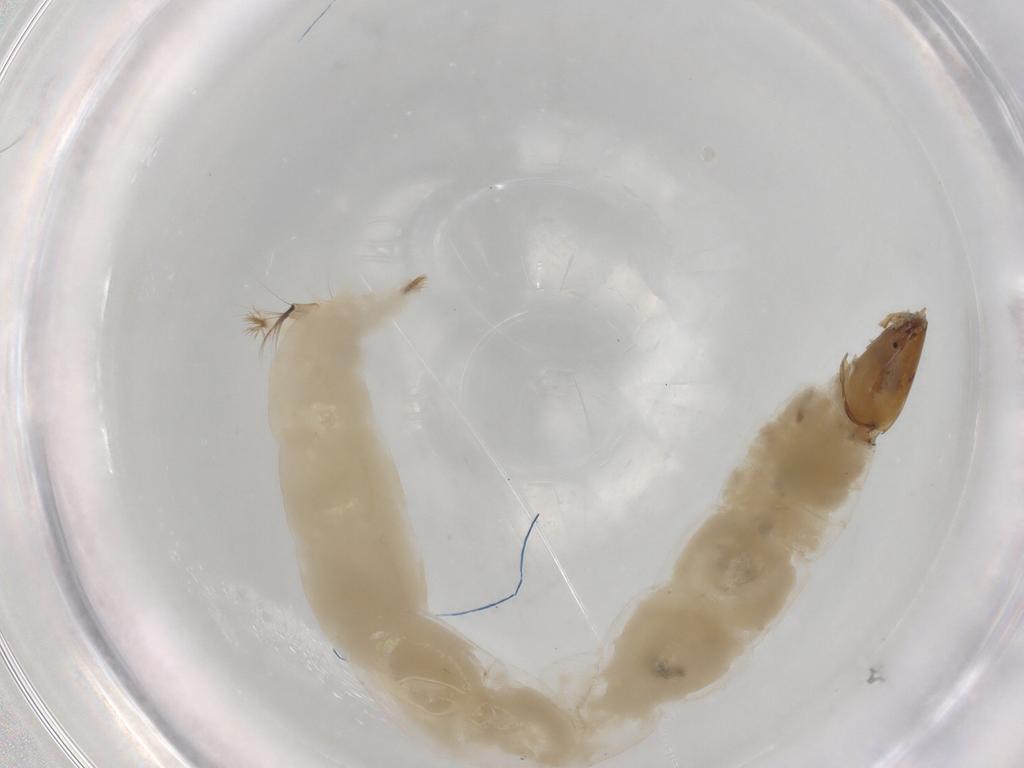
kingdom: Animalia
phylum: Arthropoda
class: Insecta
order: Diptera
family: Chironomidae
